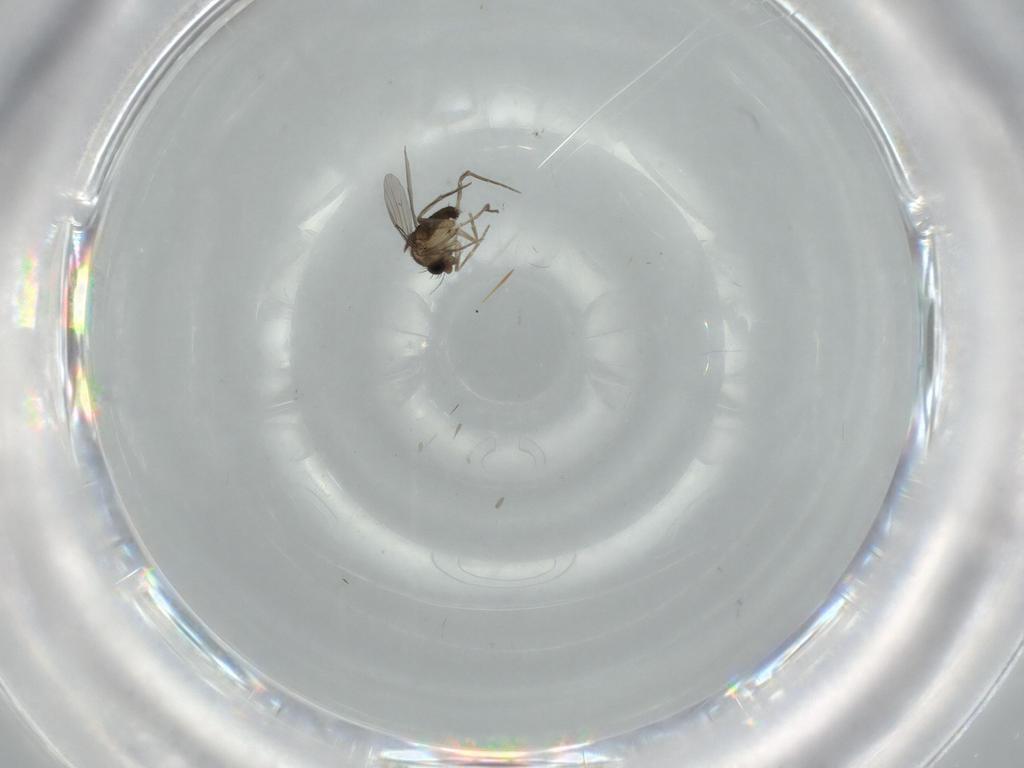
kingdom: Animalia
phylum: Arthropoda
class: Insecta
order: Diptera
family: Phoridae
